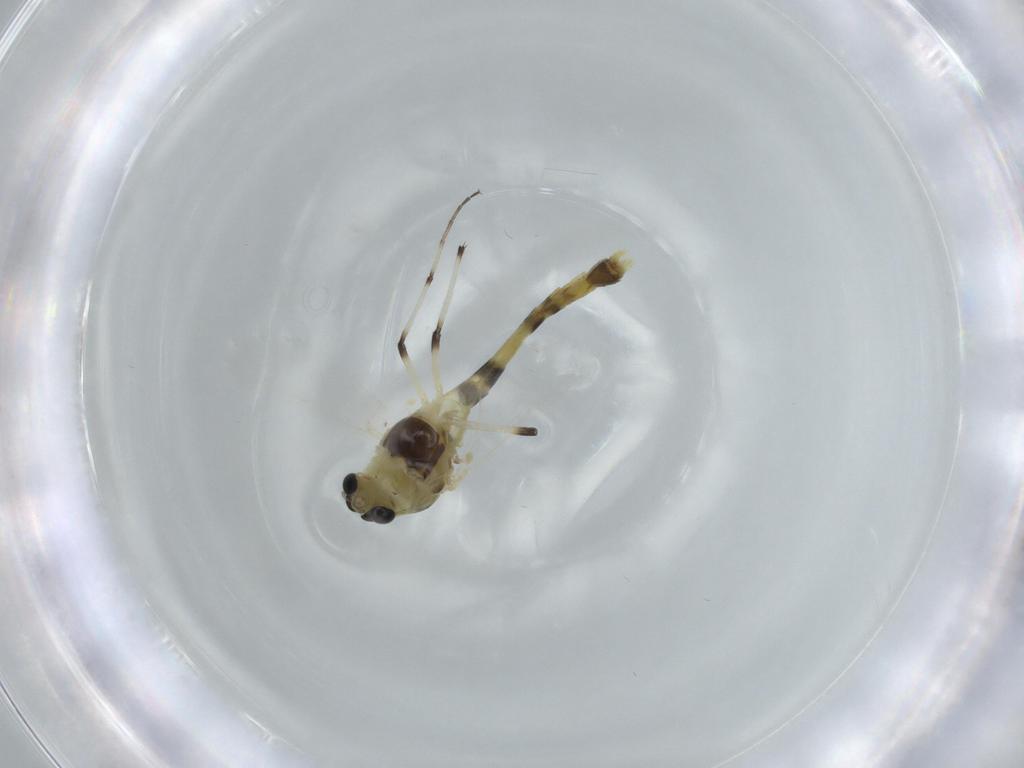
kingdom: Animalia
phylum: Arthropoda
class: Insecta
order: Diptera
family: Chironomidae
